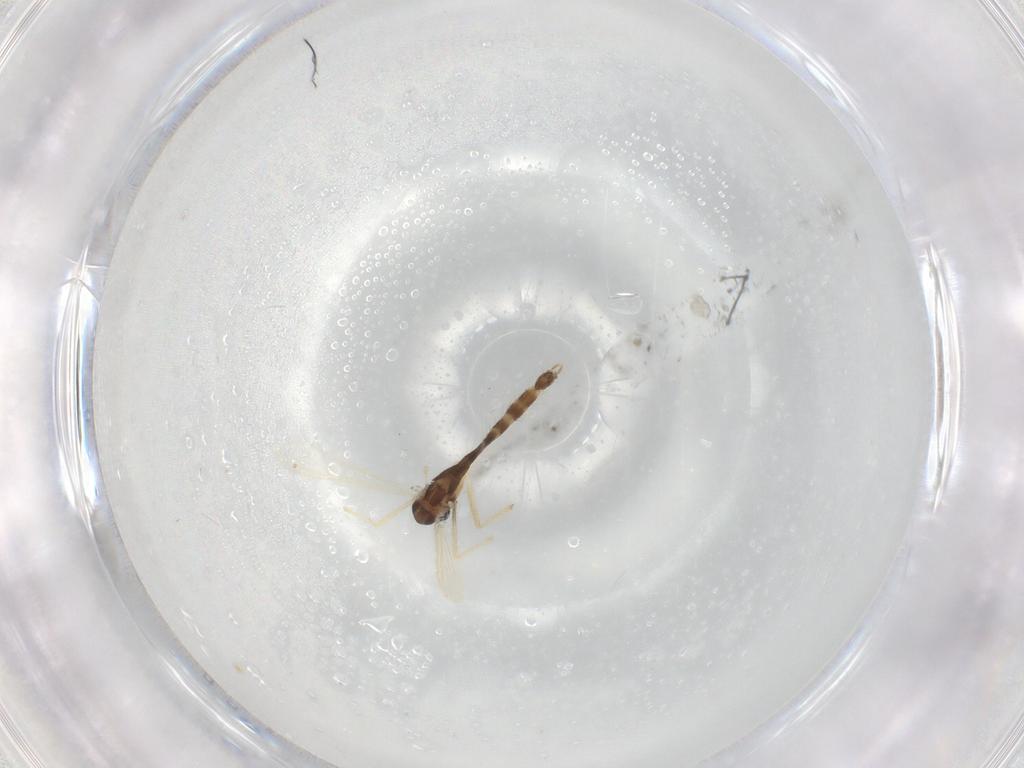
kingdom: Animalia
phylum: Arthropoda
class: Insecta
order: Diptera
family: Chironomidae
